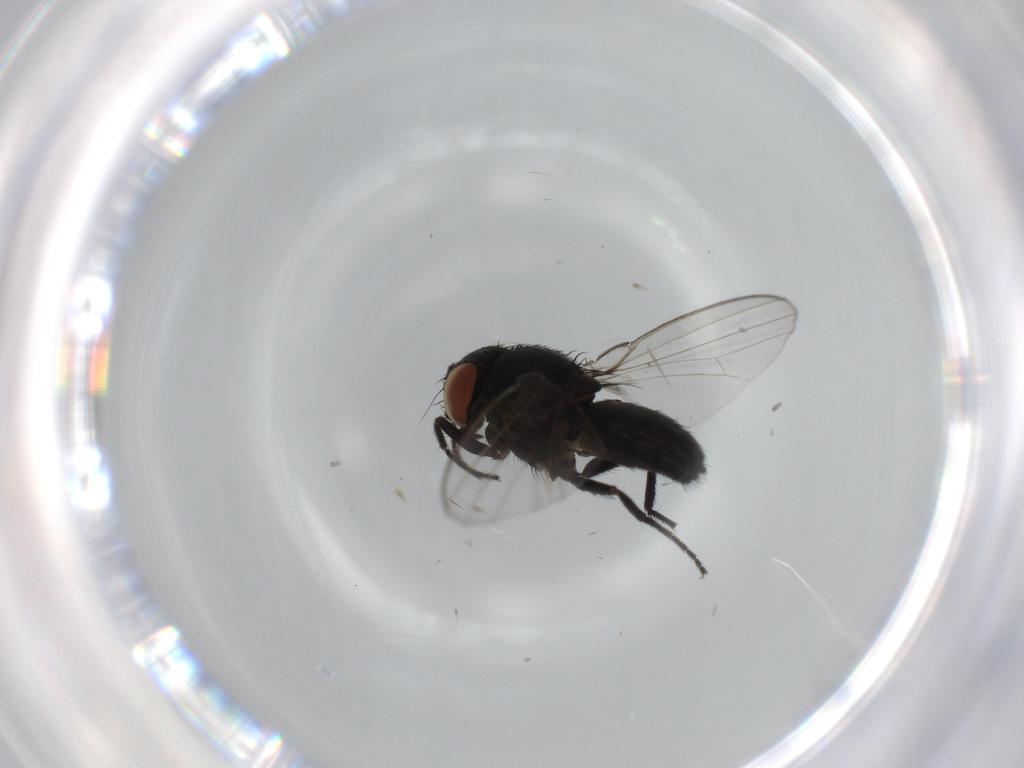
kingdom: Animalia
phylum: Arthropoda
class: Insecta
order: Diptera
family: Milichiidae
